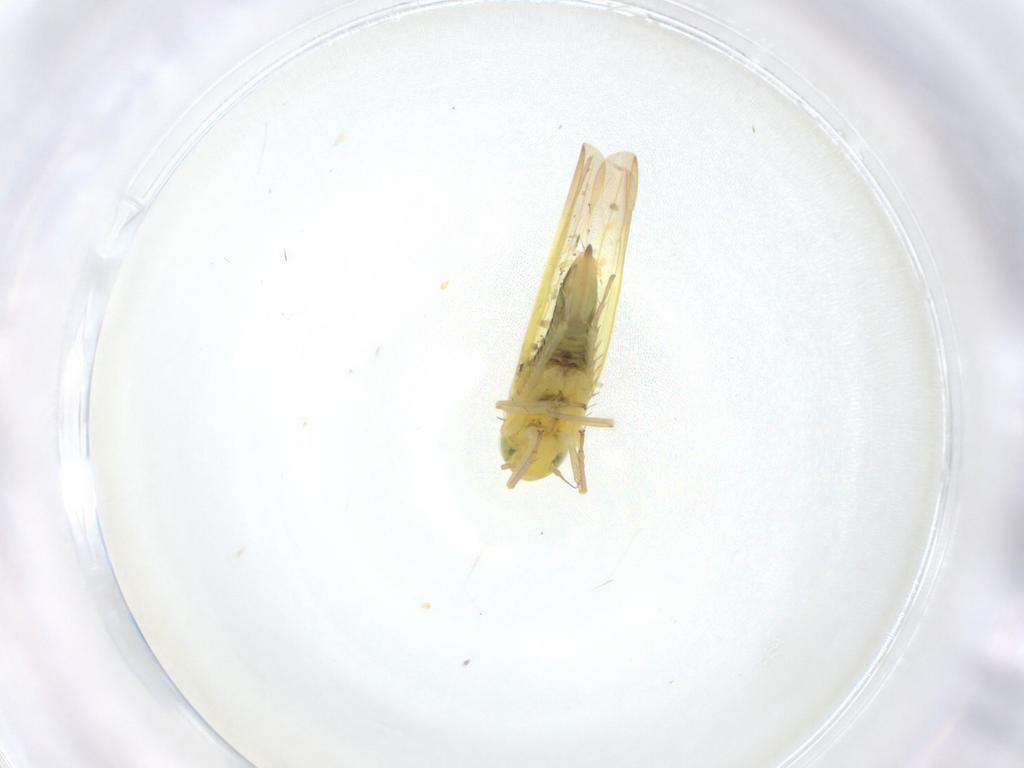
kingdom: Animalia
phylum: Arthropoda
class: Insecta
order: Hemiptera
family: Cicadellidae
